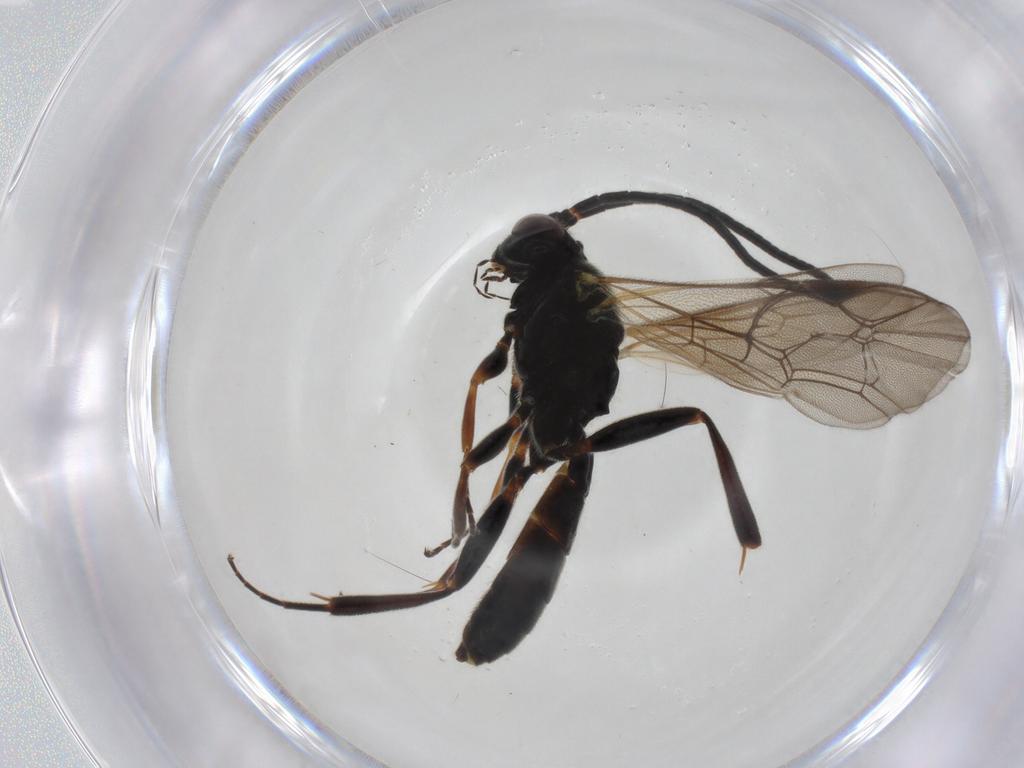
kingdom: Animalia
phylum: Arthropoda
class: Insecta
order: Hymenoptera
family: Ichneumonidae
